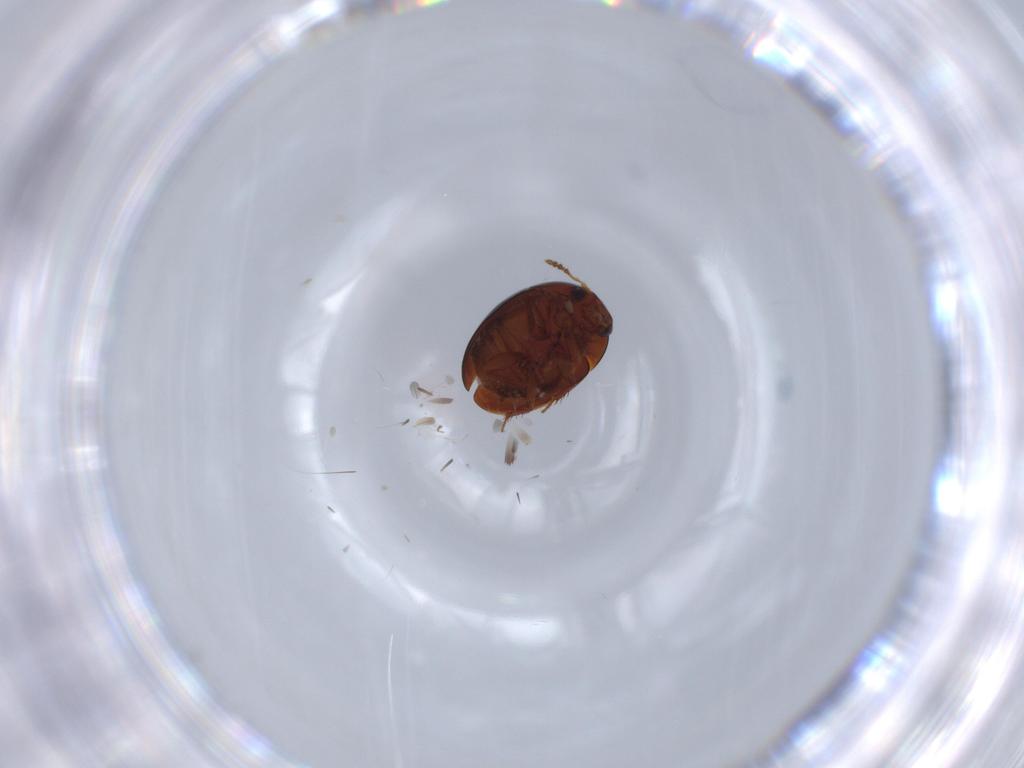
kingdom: Animalia
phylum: Arthropoda
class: Insecta
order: Coleoptera
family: Leiodidae
